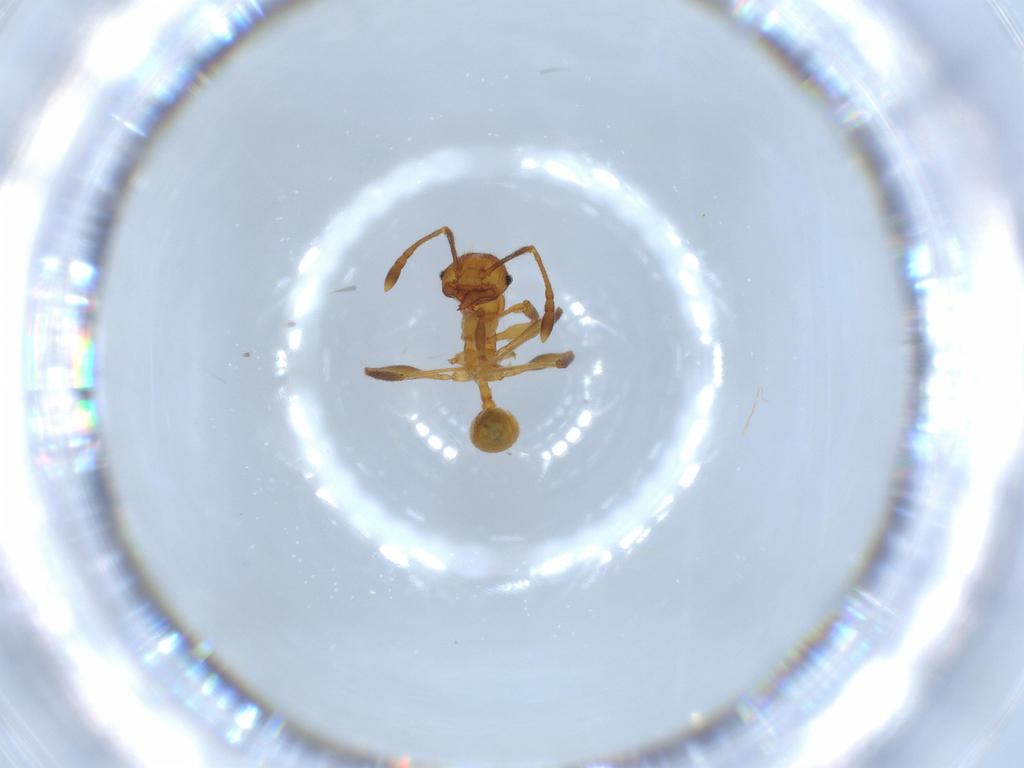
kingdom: Animalia
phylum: Arthropoda
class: Insecta
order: Hymenoptera
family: Formicidae
